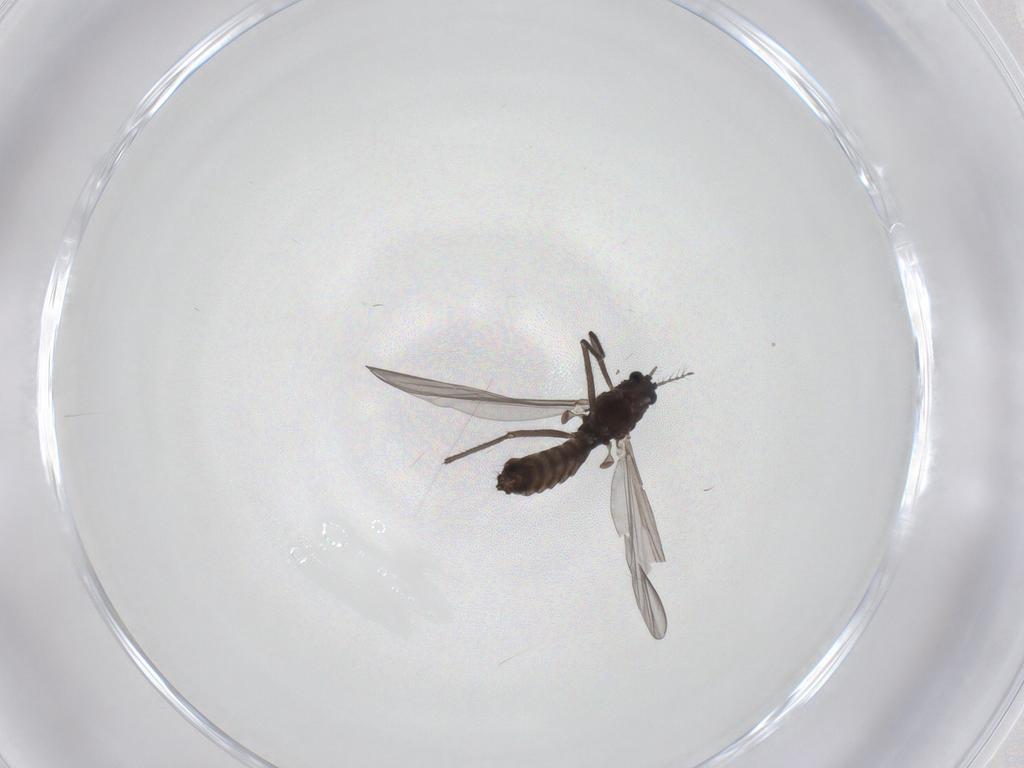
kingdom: Animalia
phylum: Arthropoda
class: Insecta
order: Diptera
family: Chironomidae
